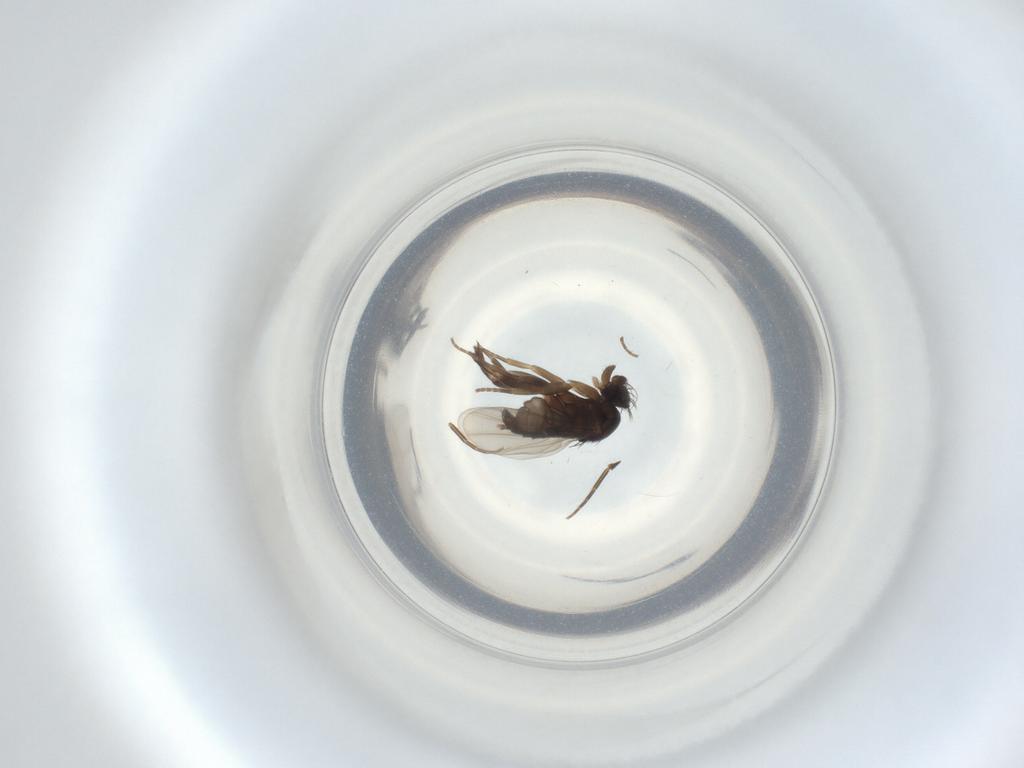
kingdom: Animalia
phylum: Arthropoda
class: Insecta
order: Diptera
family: Phoridae
